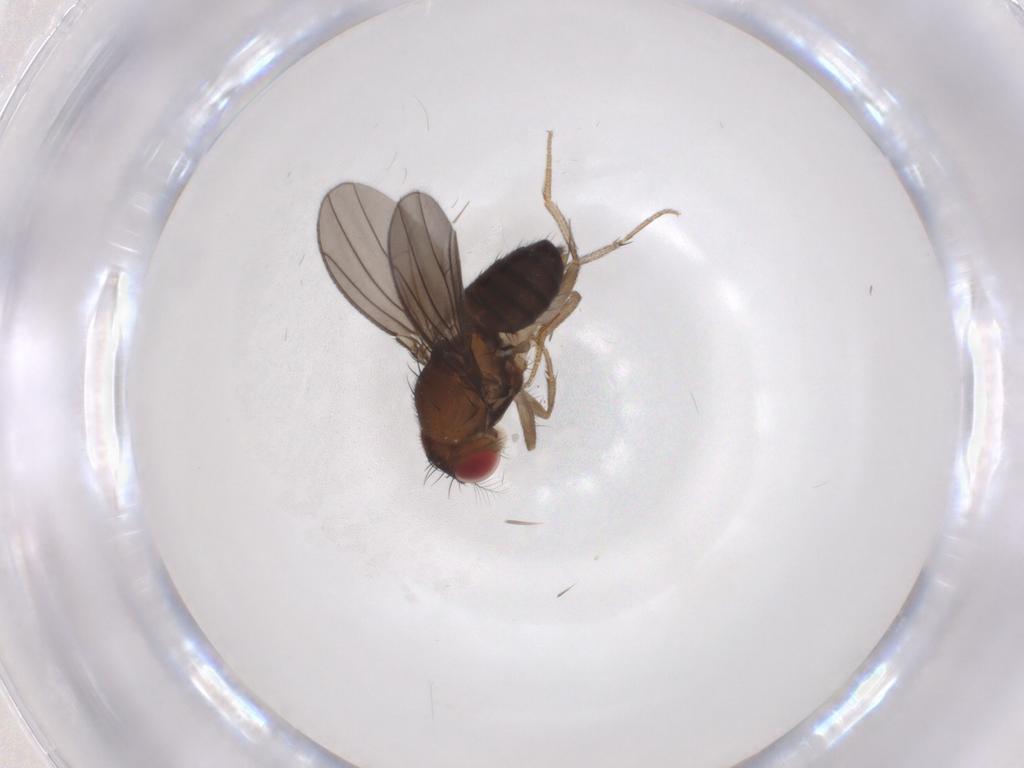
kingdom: Animalia
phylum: Arthropoda
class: Insecta
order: Diptera
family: Drosophilidae
